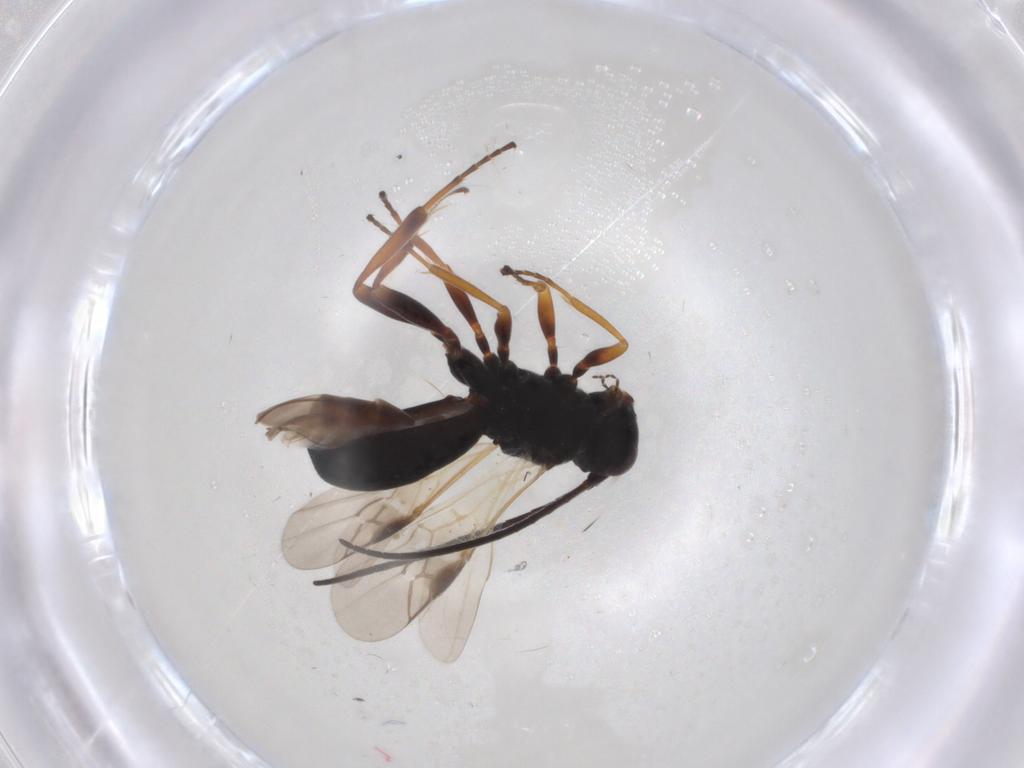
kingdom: Animalia
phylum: Arthropoda
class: Insecta
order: Hymenoptera
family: Braconidae
